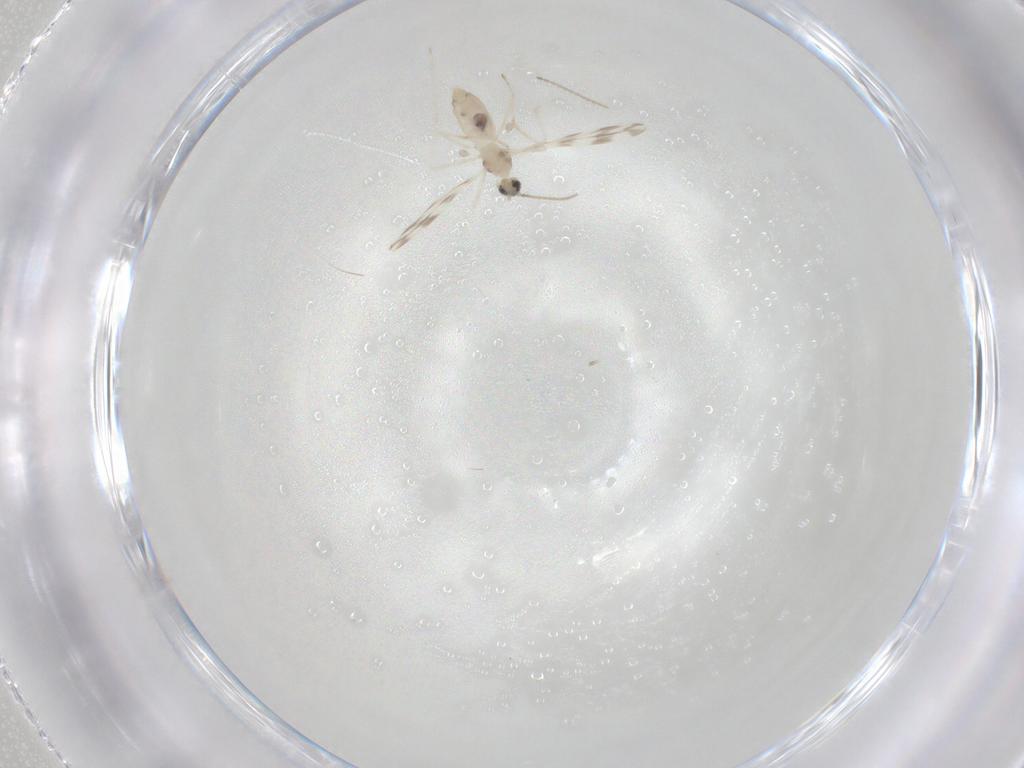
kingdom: Animalia
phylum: Arthropoda
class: Insecta
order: Diptera
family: Cecidomyiidae
